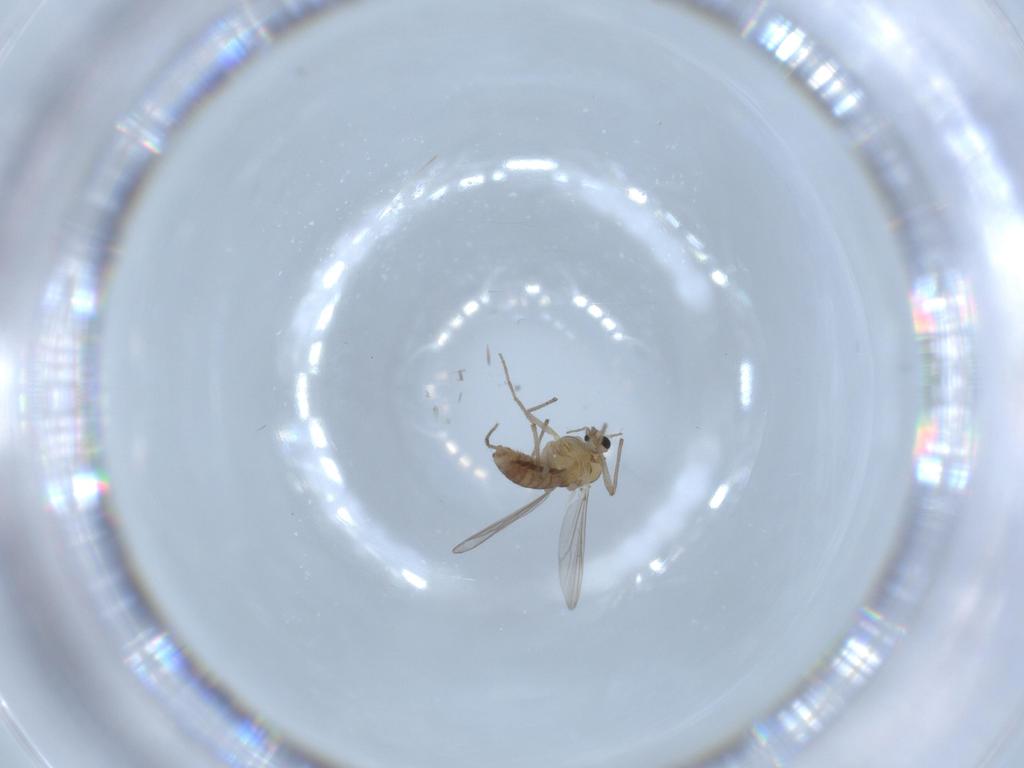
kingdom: Animalia
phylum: Arthropoda
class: Insecta
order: Diptera
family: Chironomidae
